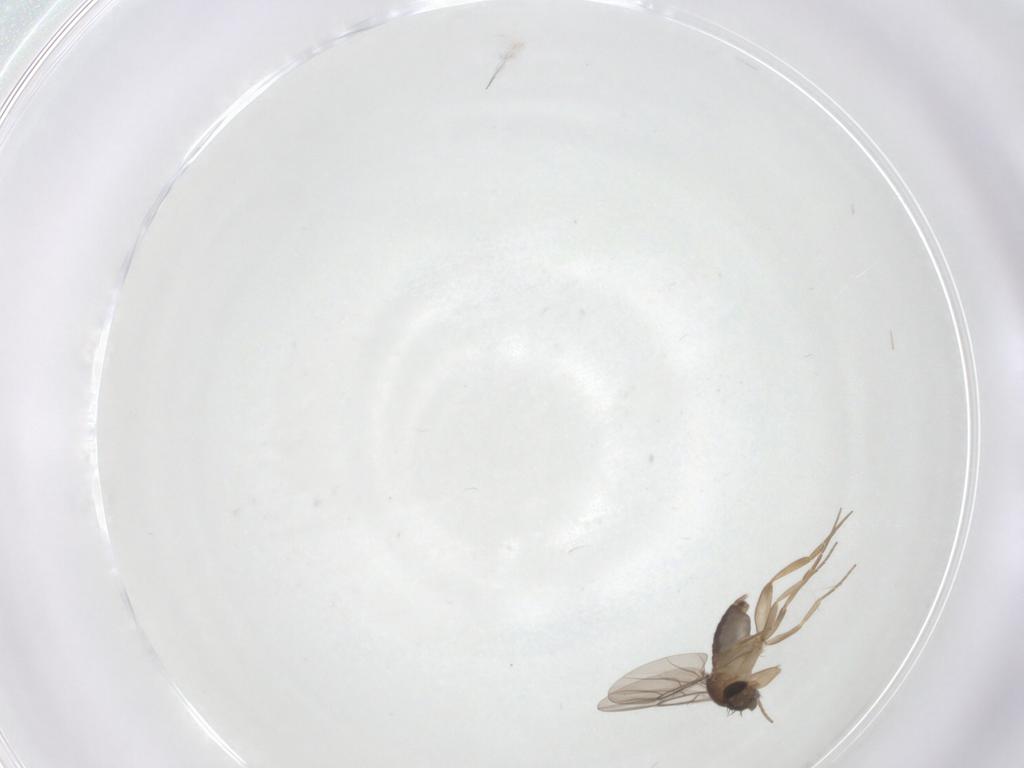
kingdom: Animalia
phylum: Arthropoda
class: Insecta
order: Diptera
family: Phoridae
